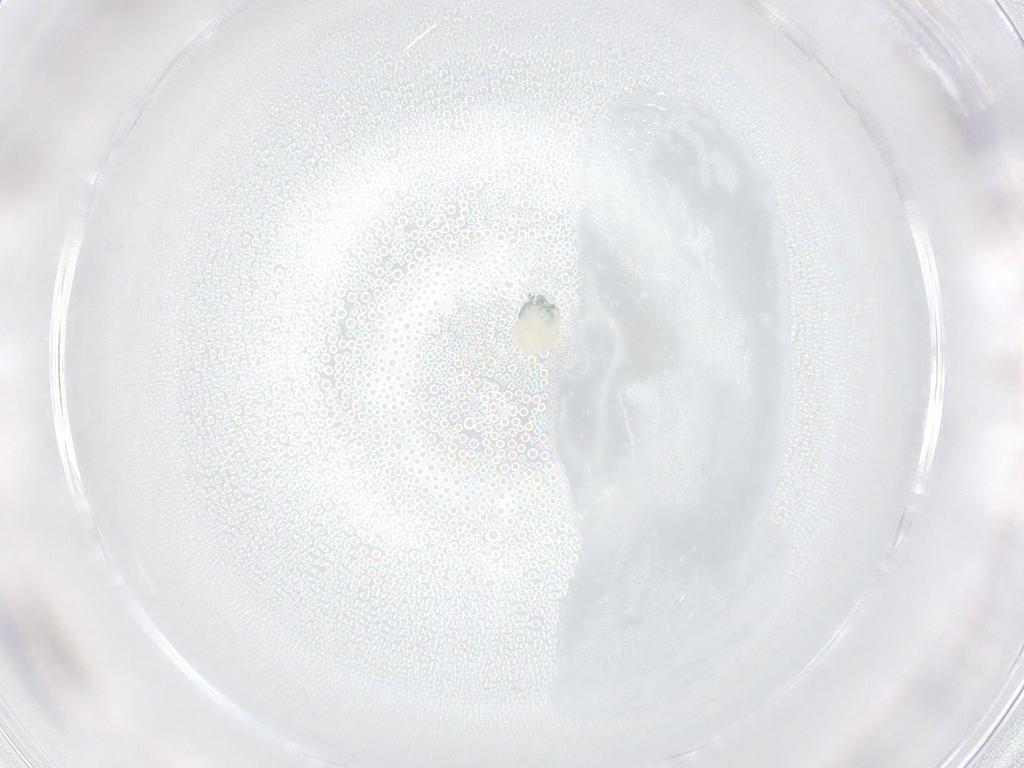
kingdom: Animalia
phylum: Arthropoda
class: Arachnida
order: Trombidiformes
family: Arrenuridae
